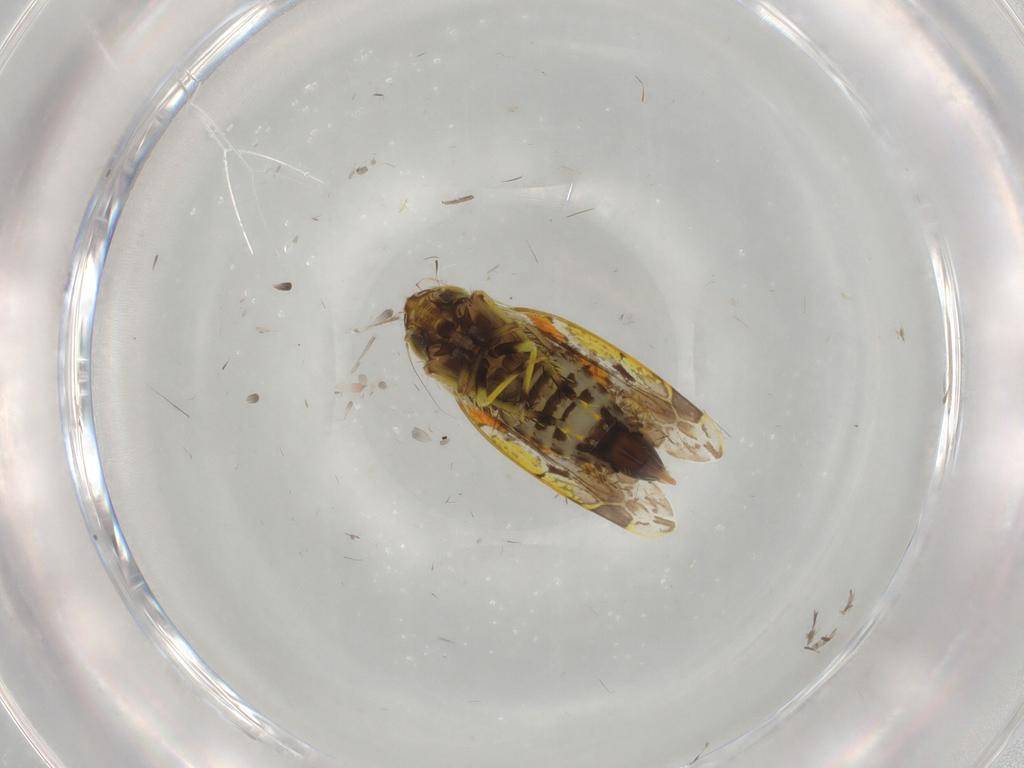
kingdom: Animalia
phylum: Arthropoda
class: Insecta
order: Hemiptera
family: Cicadellidae
